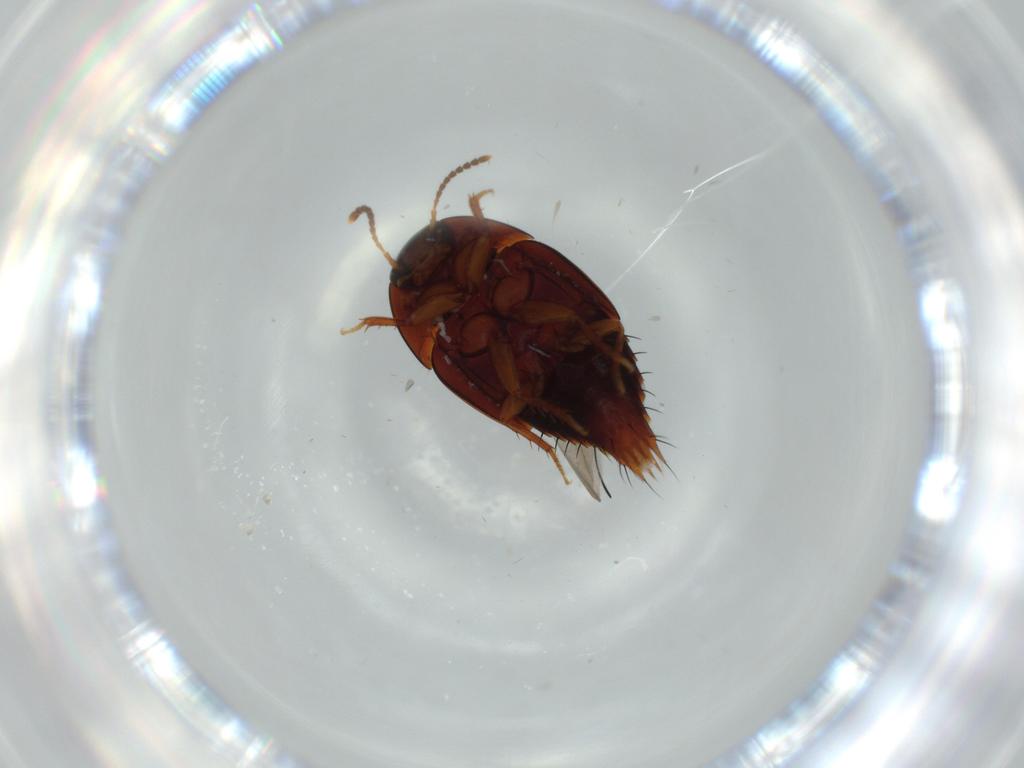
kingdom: Animalia
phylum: Arthropoda
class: Insecta
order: Coleoptera
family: Staphylinidae
